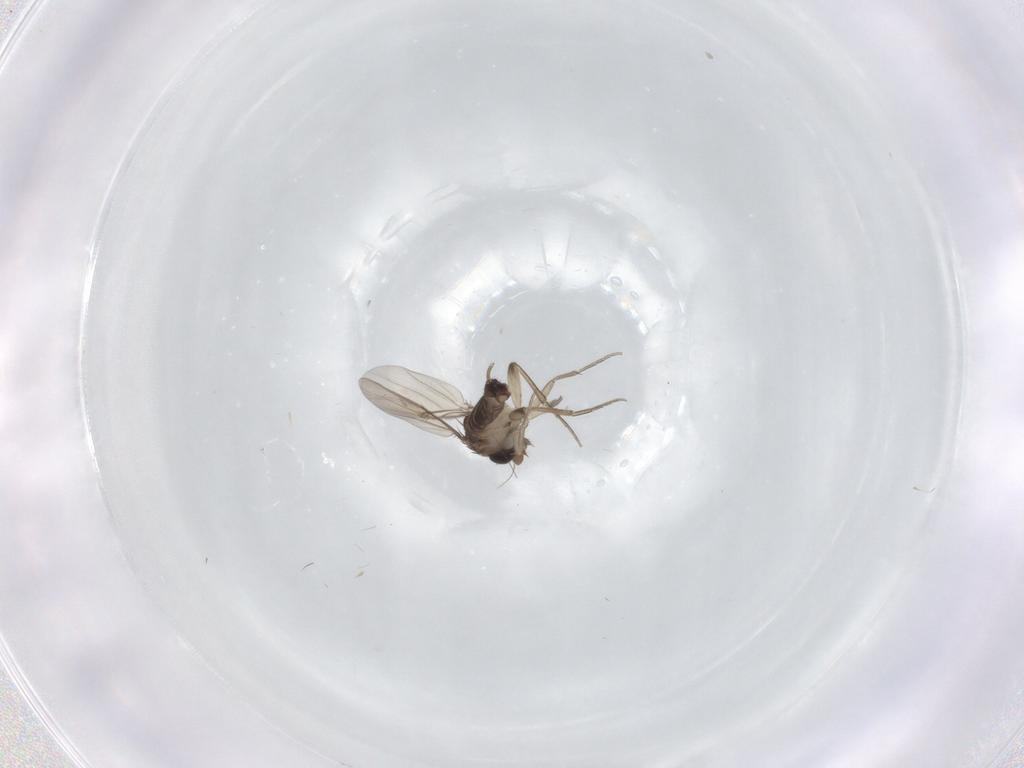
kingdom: Animalia
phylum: Arthropoda
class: Insecta
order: Diptera
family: Phoridae
